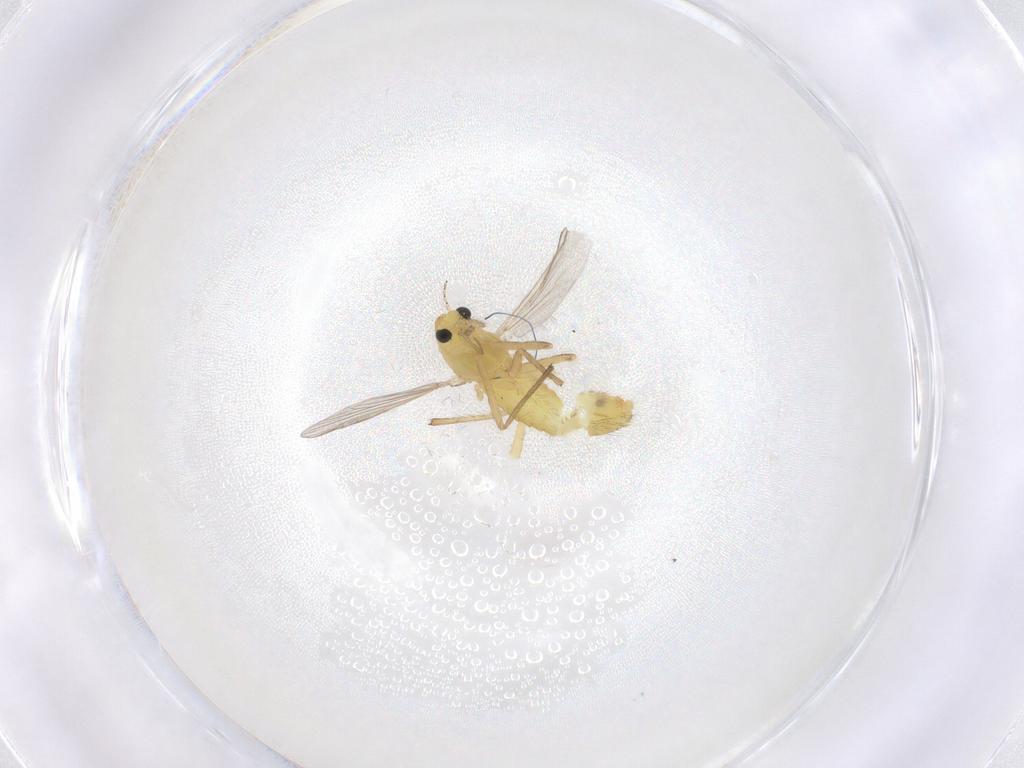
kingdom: Animalia
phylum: Arthropoda
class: Insecta
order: Diptera
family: Chironomidae
